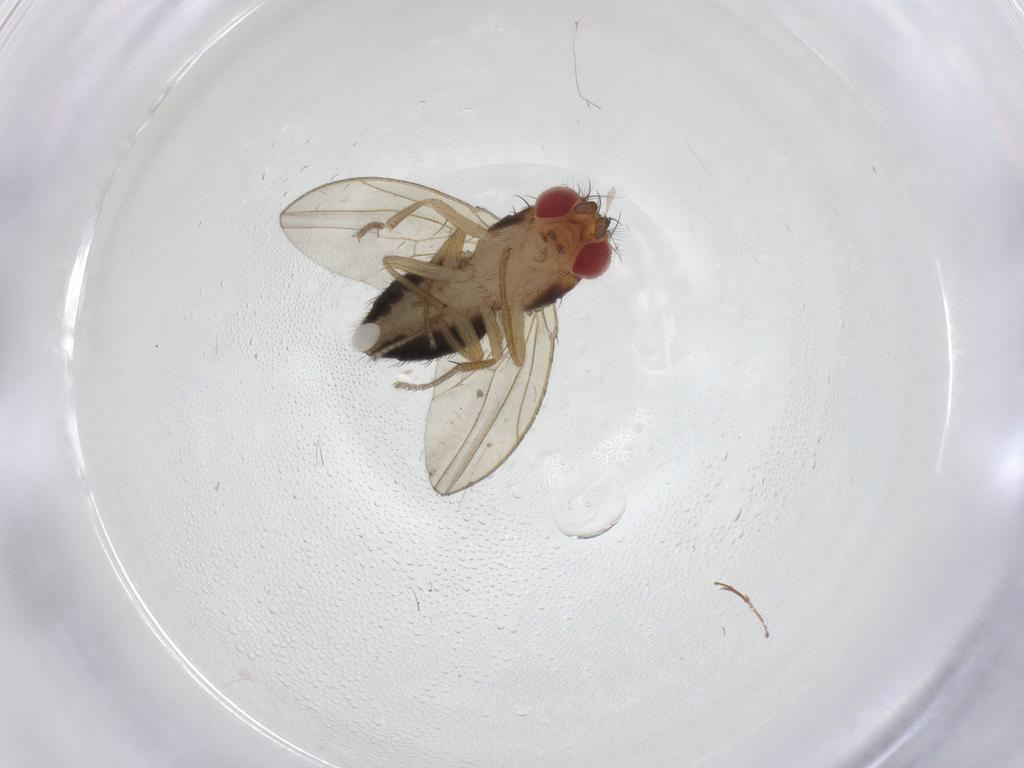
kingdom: Animalia
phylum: Arthropoda
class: Insecta
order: Diptera
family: Drosophilidae
